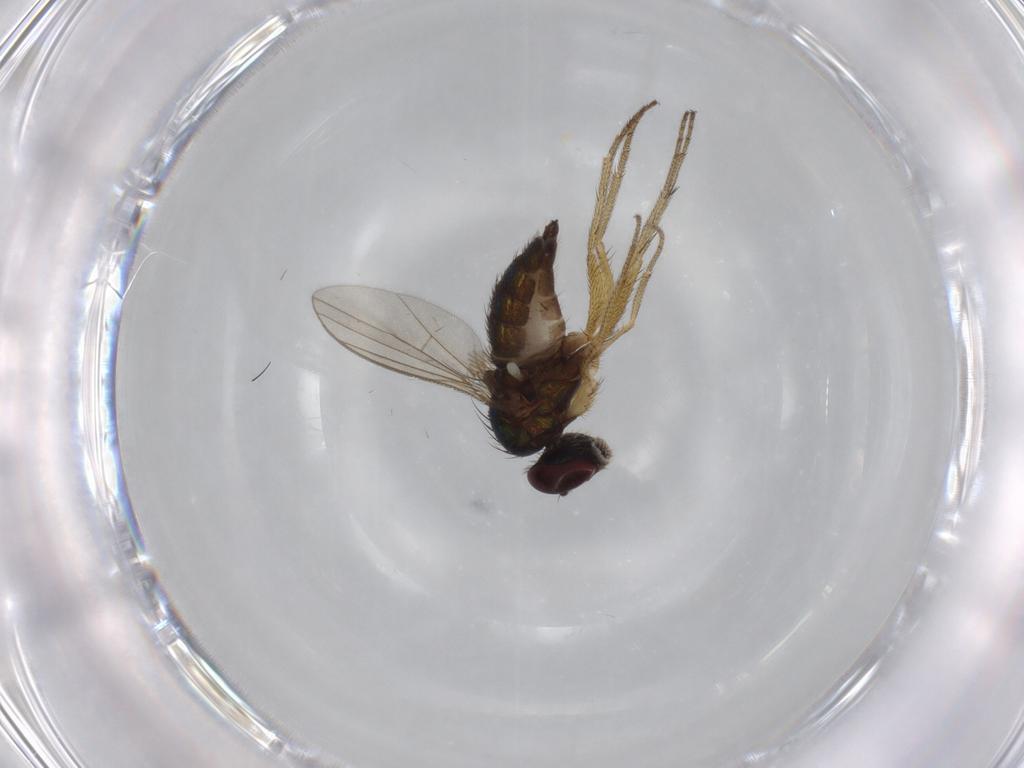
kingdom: Animalia
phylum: Arthropoda
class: Insecta
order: Diptera
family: Dolichopodidae
